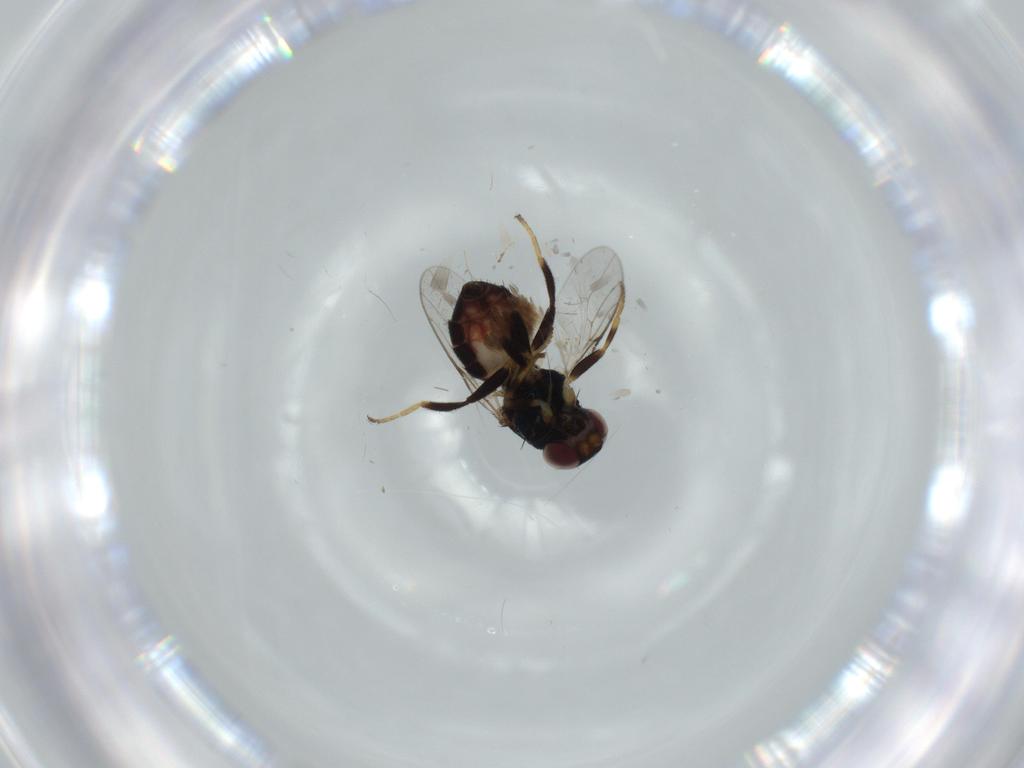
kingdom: Animalia
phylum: Arthropoda
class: Insecta
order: Diptera
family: Chloropidae
